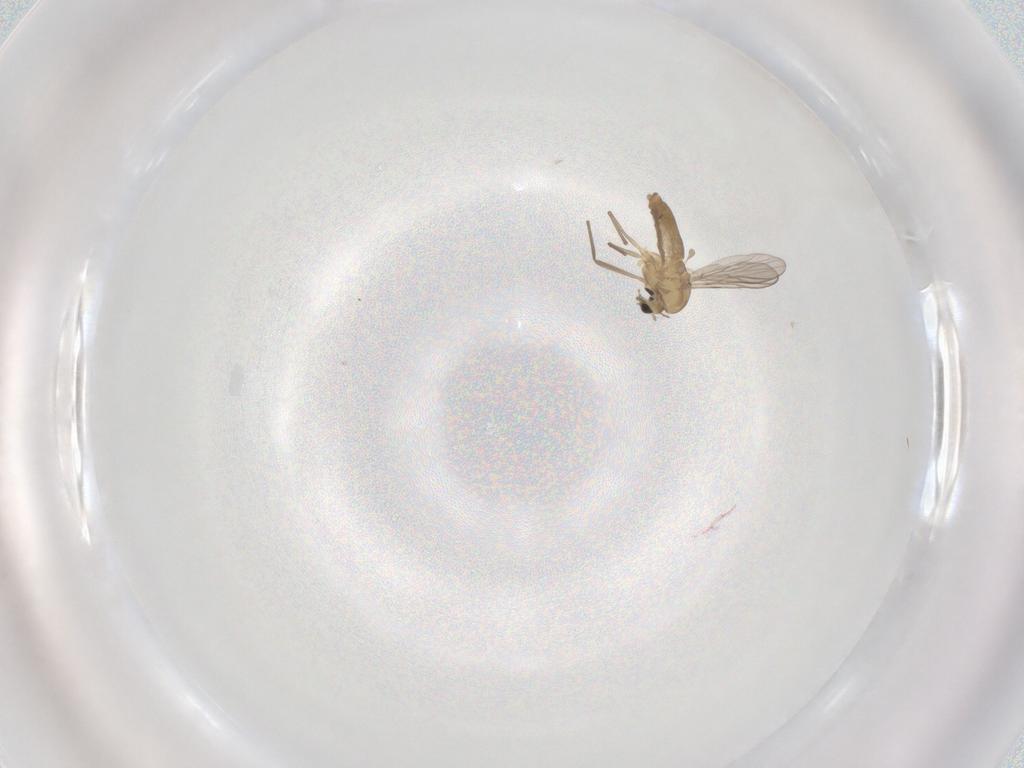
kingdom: Animalia
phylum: Arthropoda
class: Insecta
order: Diptera
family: Chironomidae
